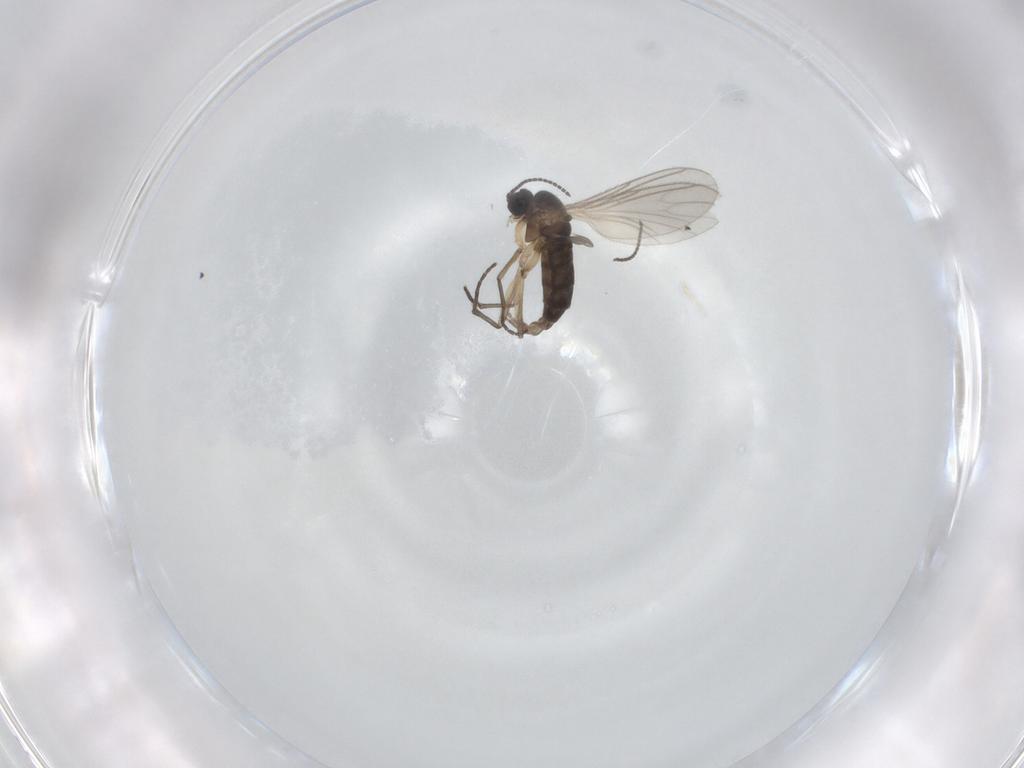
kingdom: Animalia
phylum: Arthropoda
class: Insecta
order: Diptera
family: Sciaridae
